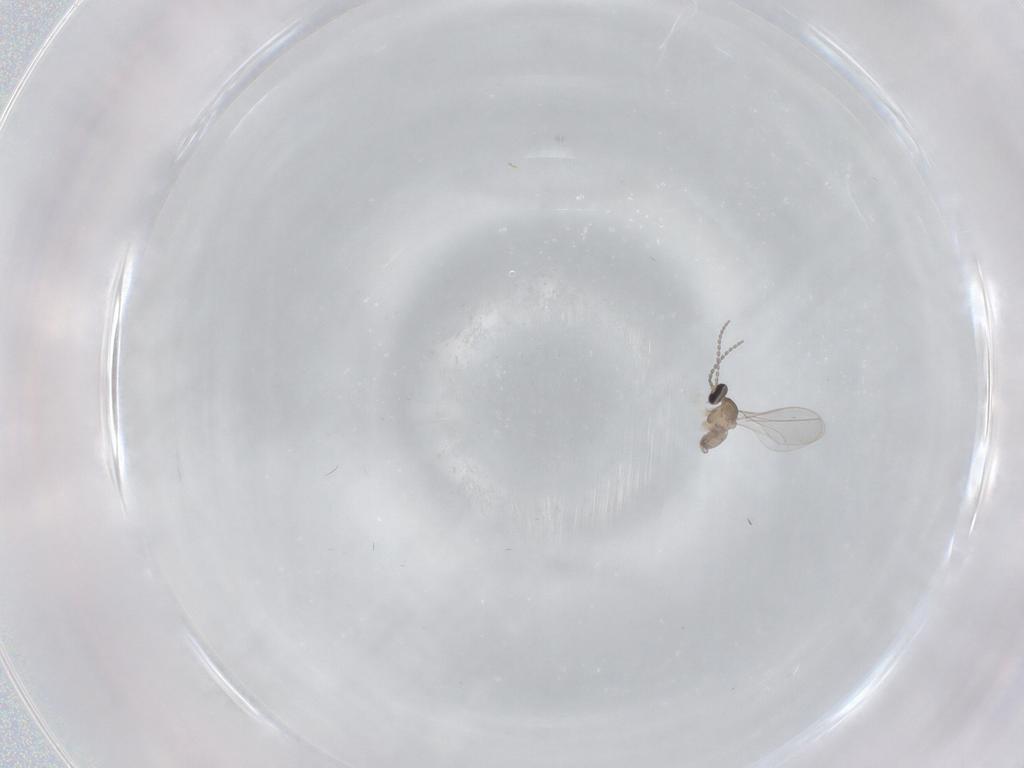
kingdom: Animalia
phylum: Arthropoda
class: Insecta
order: Diptera
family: Cecidomyiidae
